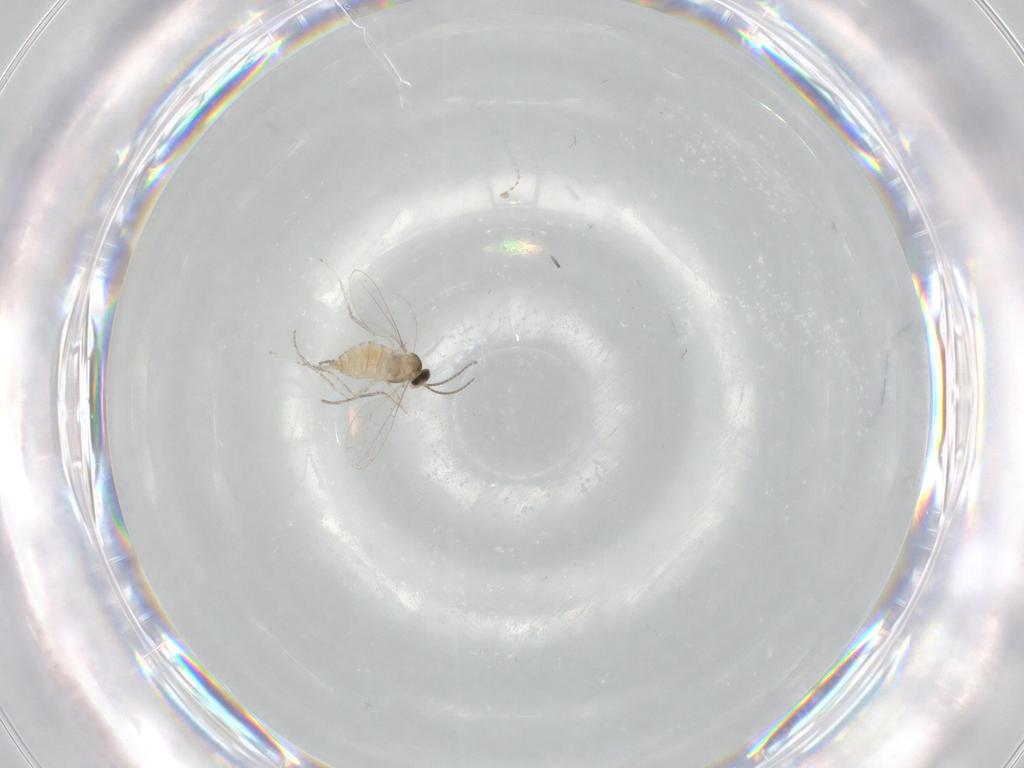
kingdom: Animalia
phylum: Arthropoda
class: Insecta
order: Diptera
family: Cecidomyiidae
